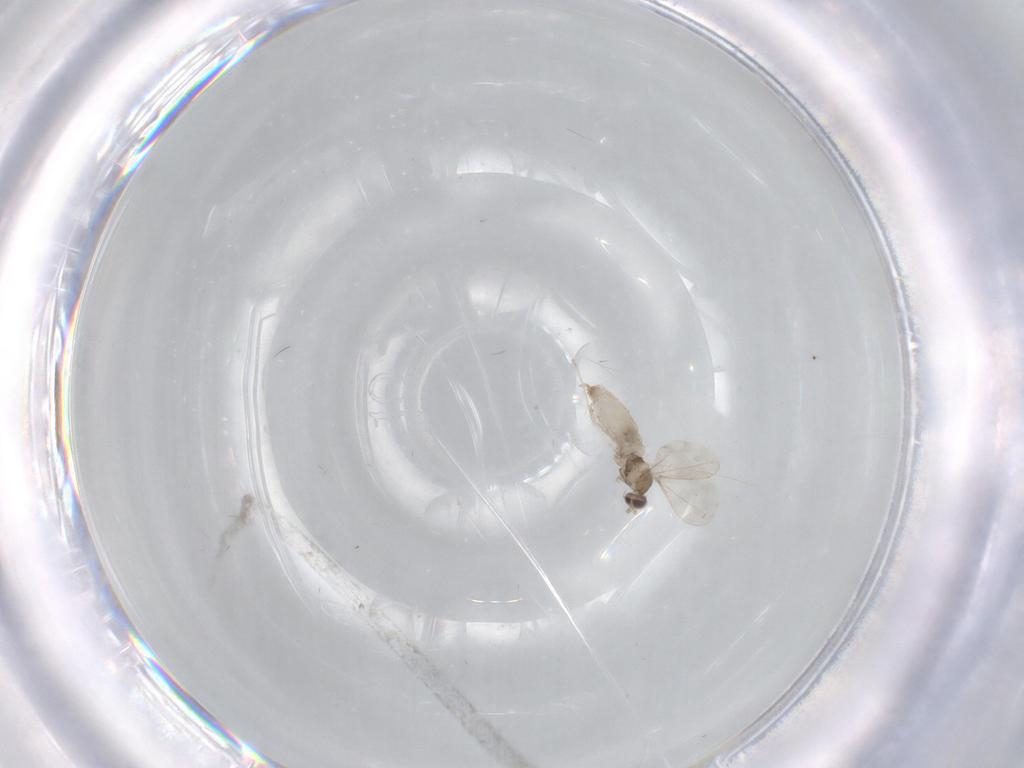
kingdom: Animalia
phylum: Arthropoda
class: Insecta
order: Diptera
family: Cecidomyiidae
